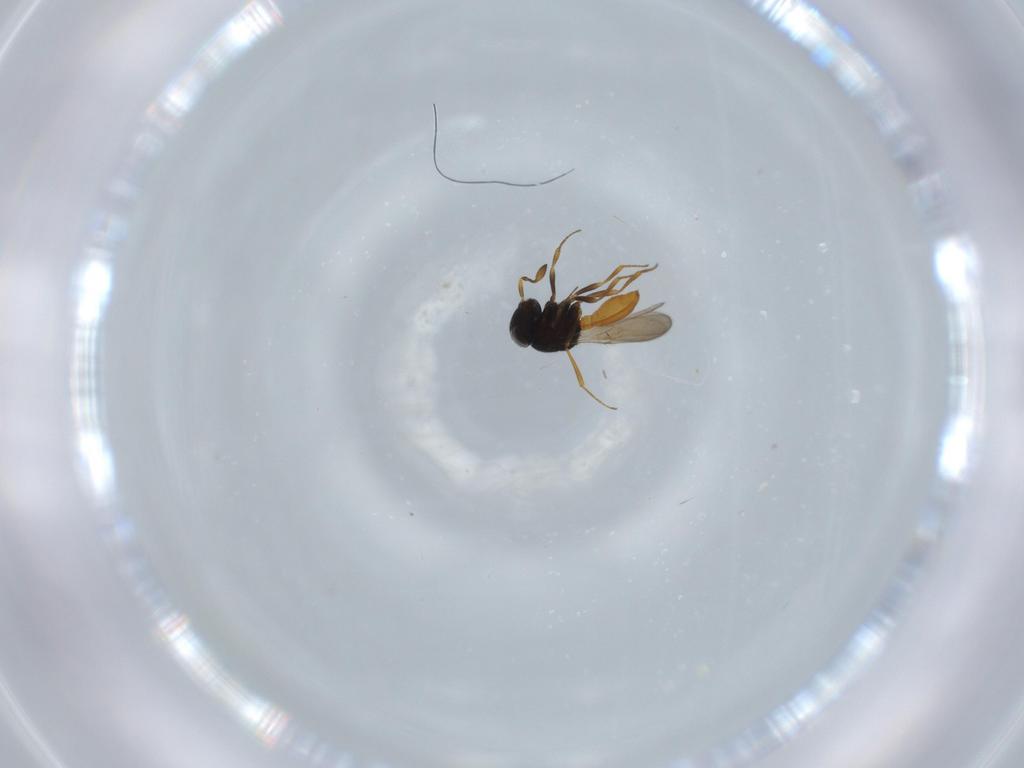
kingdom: Animalia
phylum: Arthropoda
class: Insecta
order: Hymenoptera
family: Scelionidae
